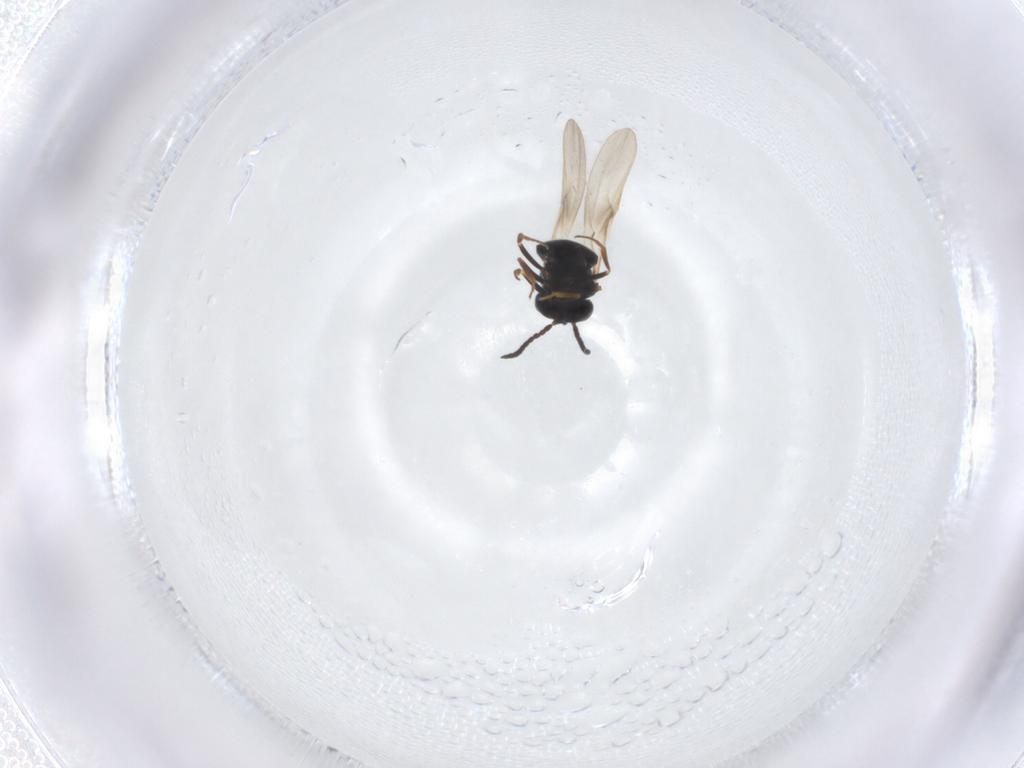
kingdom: Animalia
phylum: Arthropoda
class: Insecta
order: Hymenoptera
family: Scelionidae
